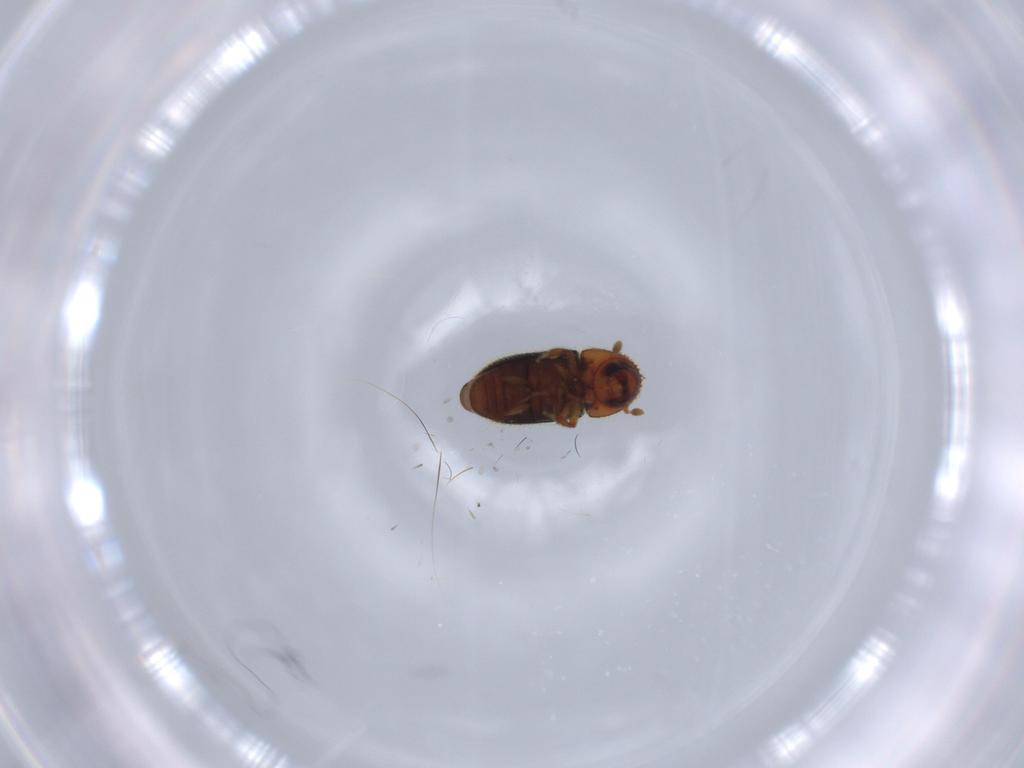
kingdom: Animalia
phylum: Arthropoda
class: Insecta
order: Coleoptera
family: Curculionidae
